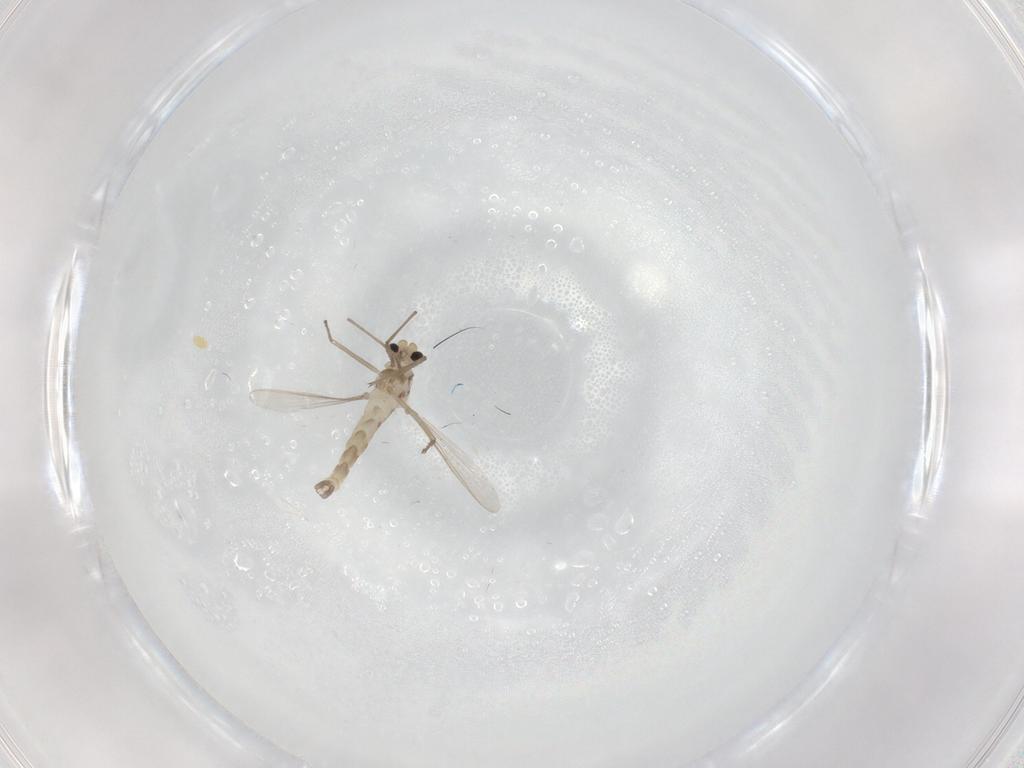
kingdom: Animalia
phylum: Arthropoda
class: Insecta
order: Diptera
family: Chironomidae
